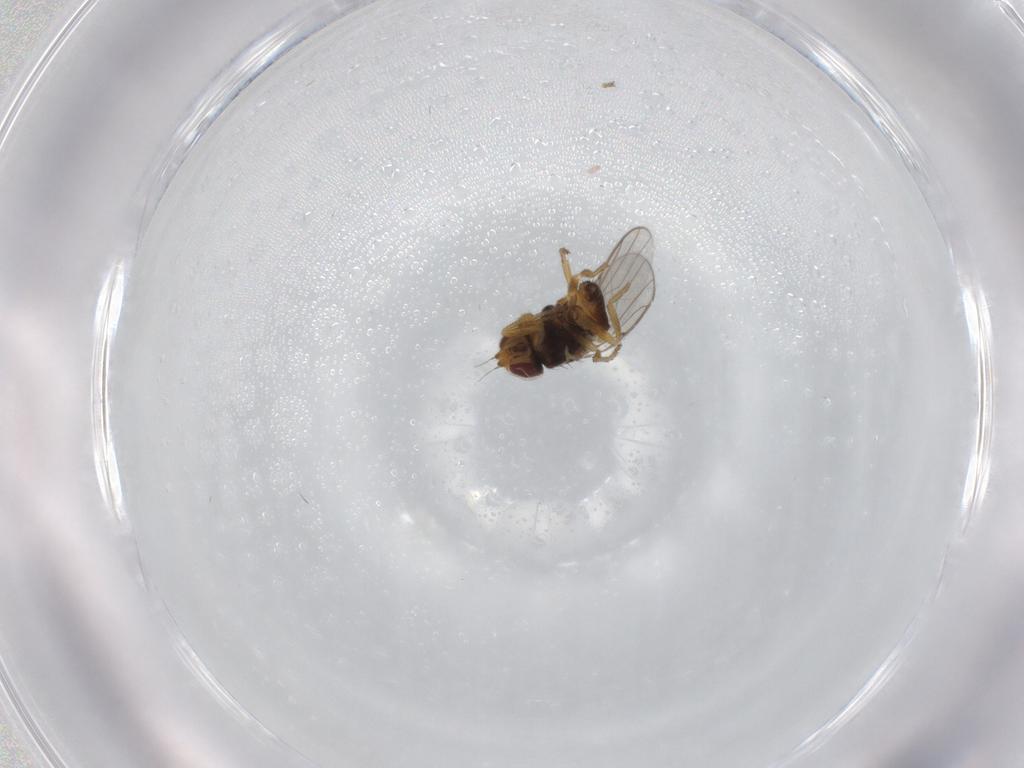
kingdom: Animalia
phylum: Arthropoda
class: Insecta
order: Diptera
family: Chloropidae
